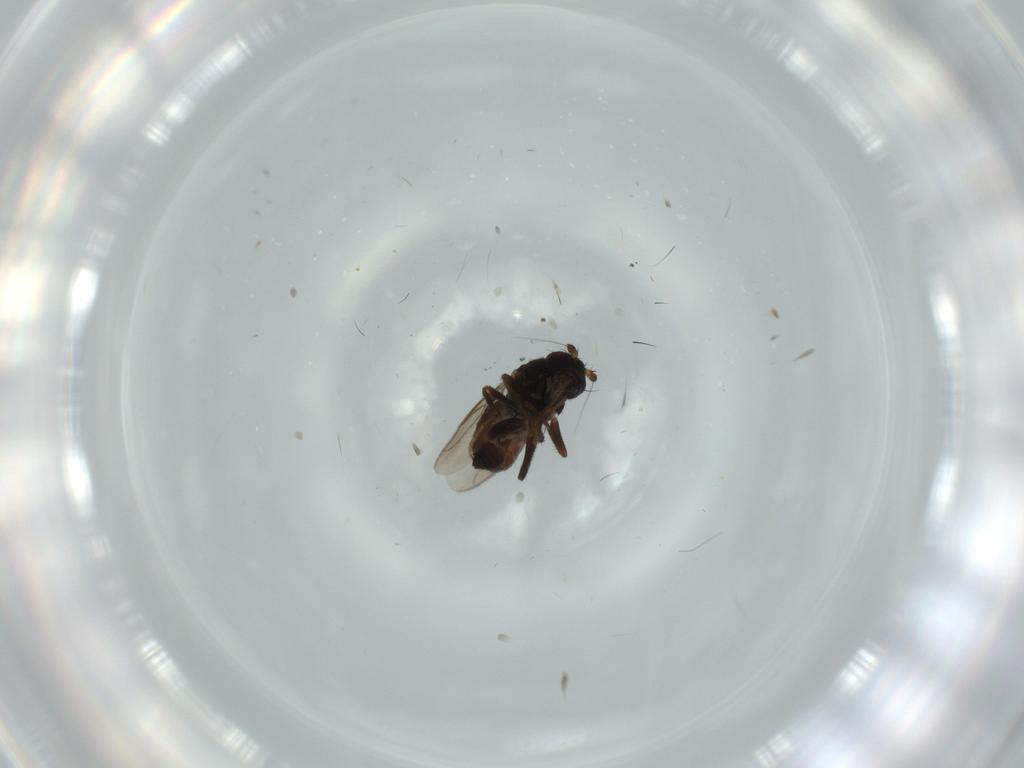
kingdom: Animalia
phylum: Arthropoda
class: Insecta
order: Diptera
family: Sphaeroceridae
